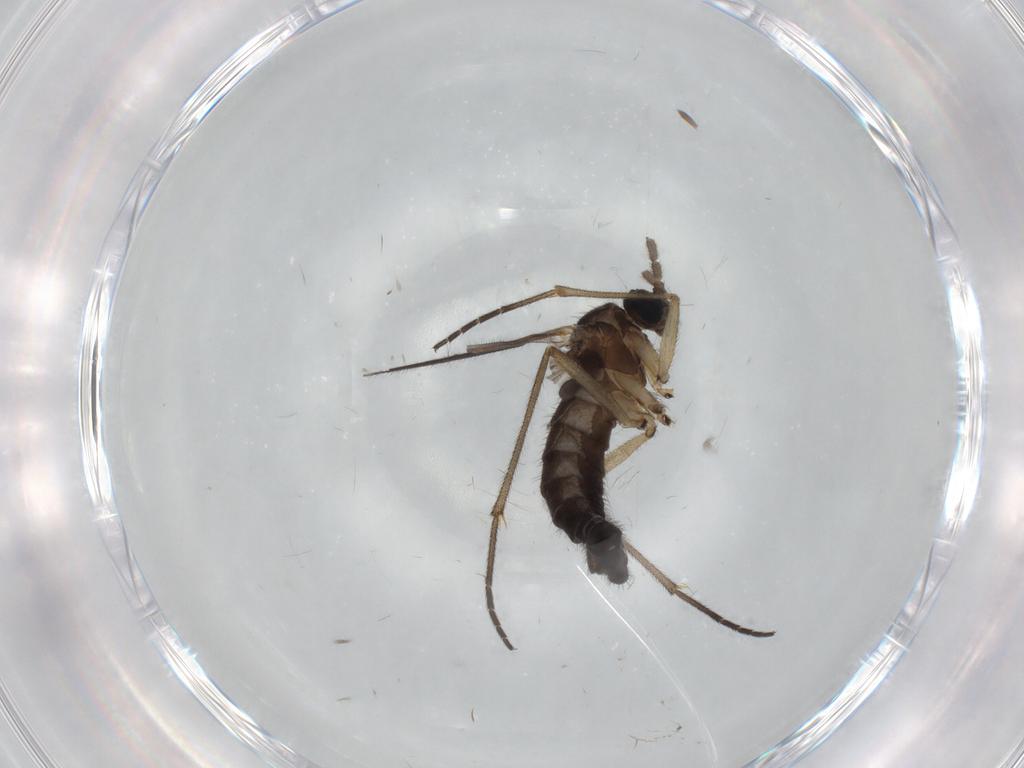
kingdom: Animalia
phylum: Arthropoda
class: Insecta
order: Diptera
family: Sciaridae
